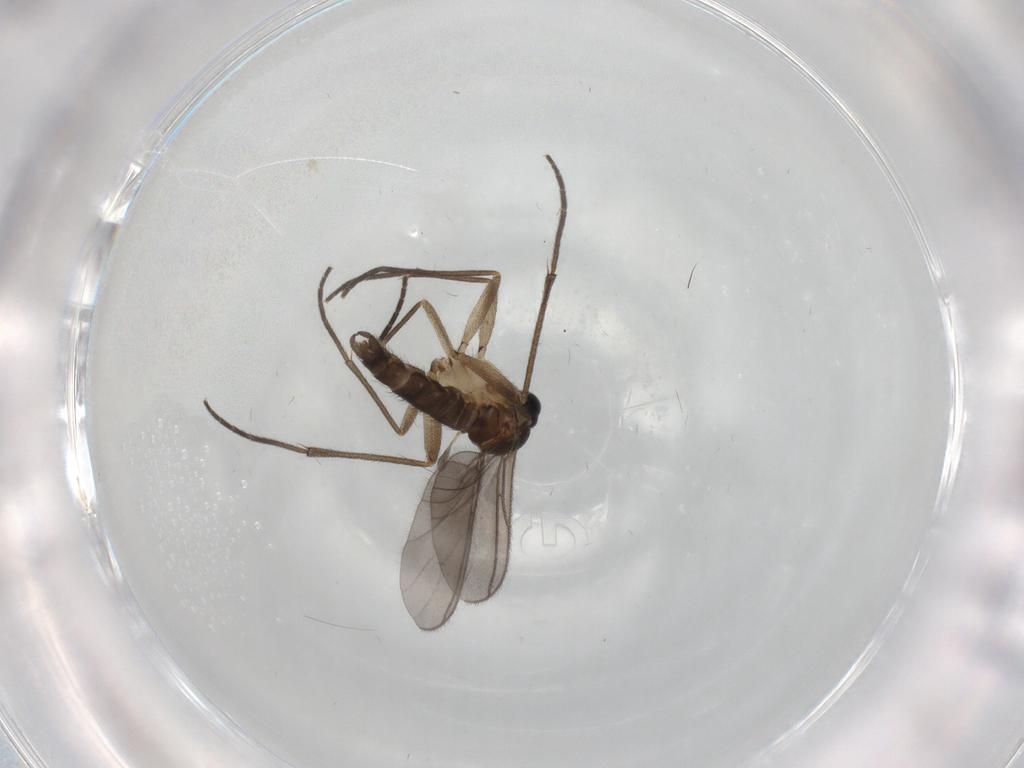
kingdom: Animalia
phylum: Arthropoda
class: Insecta
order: Diptera
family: Sciaridae
